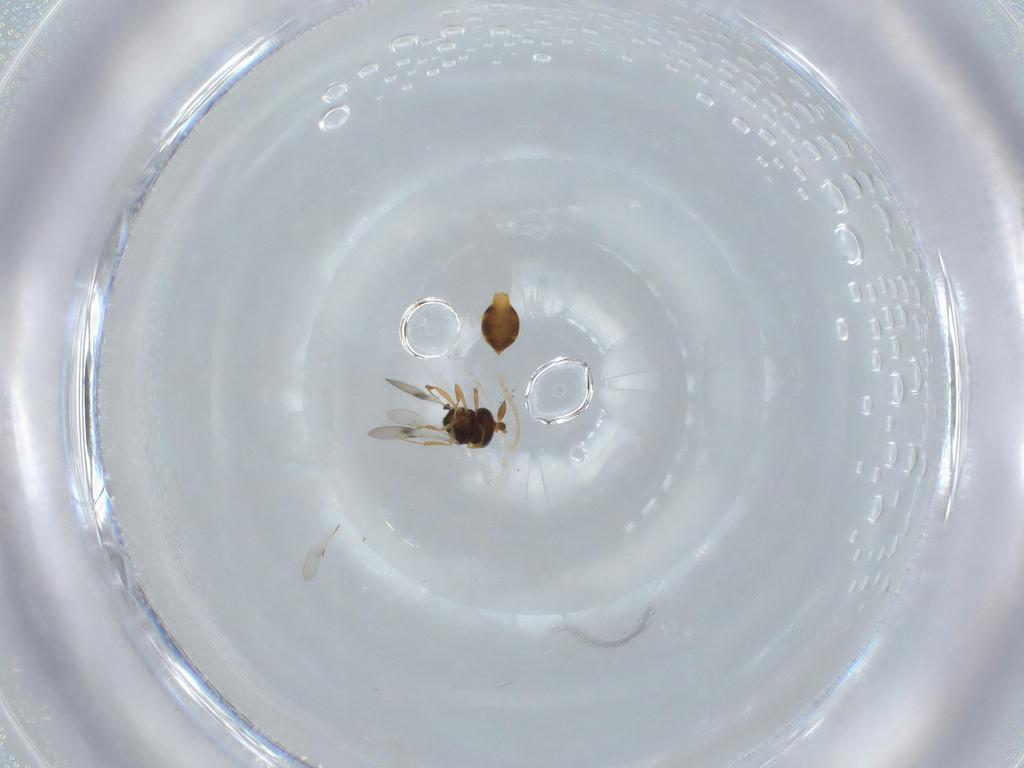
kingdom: Animalia
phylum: Arthropoda
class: Insecta
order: Hymenoptera
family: Scelionidae
